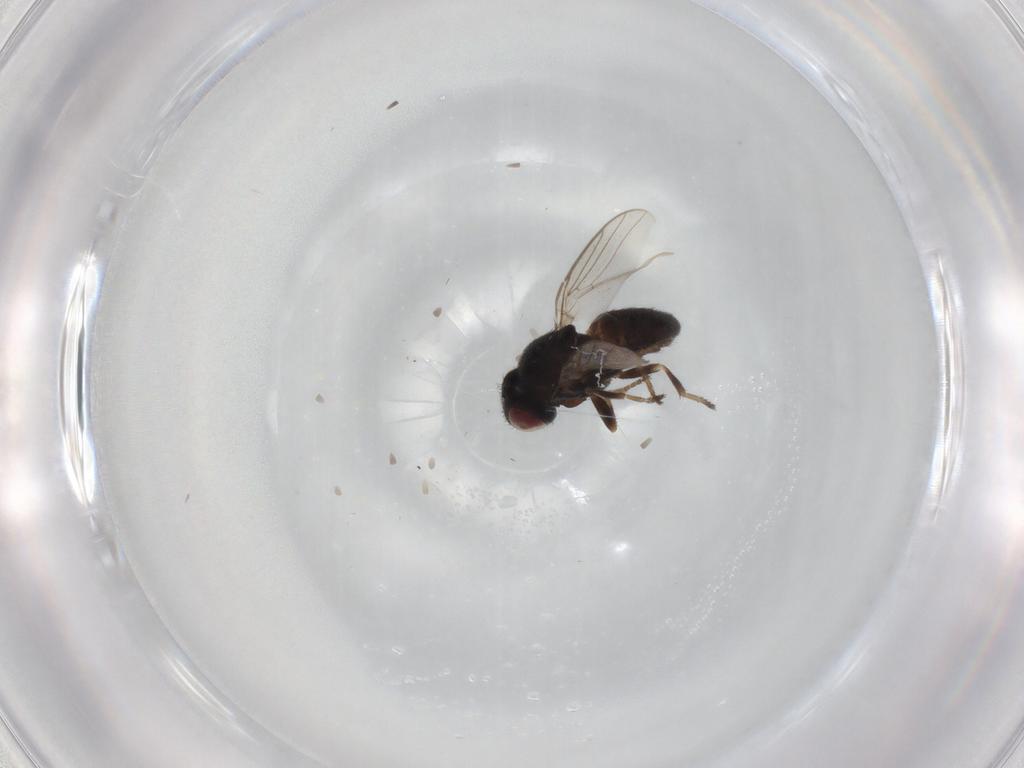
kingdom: Animalia
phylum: Arthropoda
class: Insecta
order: Diptera
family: Chloropidae
